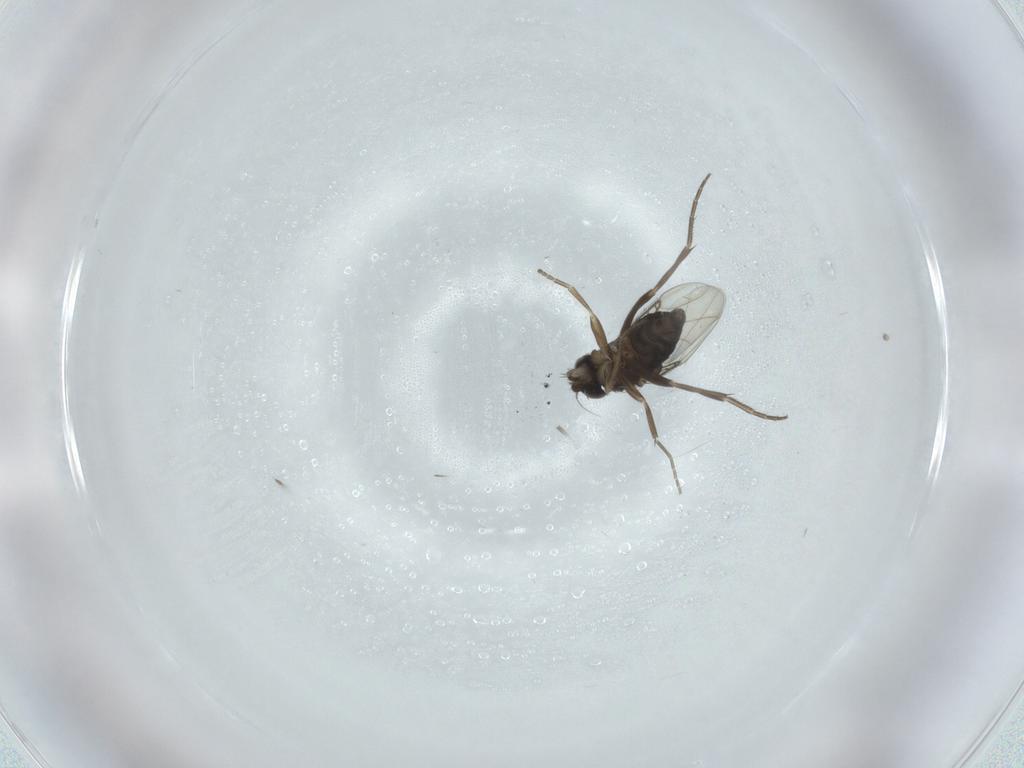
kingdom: Animalia
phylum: Arthropoda
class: Insecta
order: Diptera
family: Phoridae
